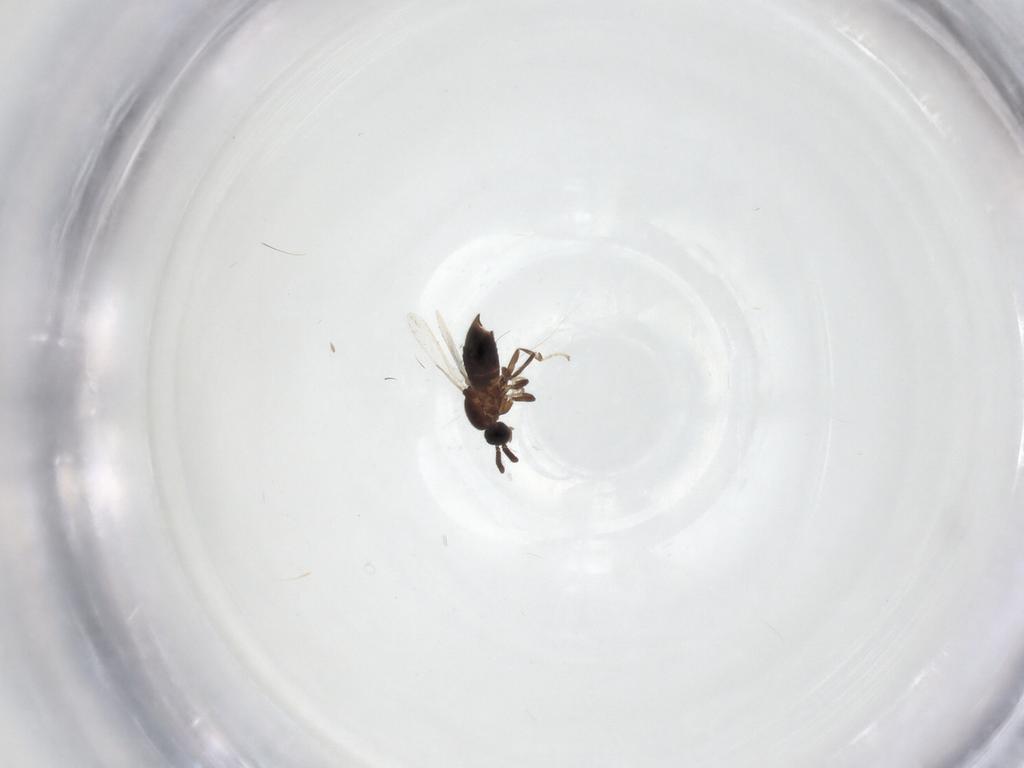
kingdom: Animalia
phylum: Arthropoda
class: Insecta
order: Diptera
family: Scatopsidae
